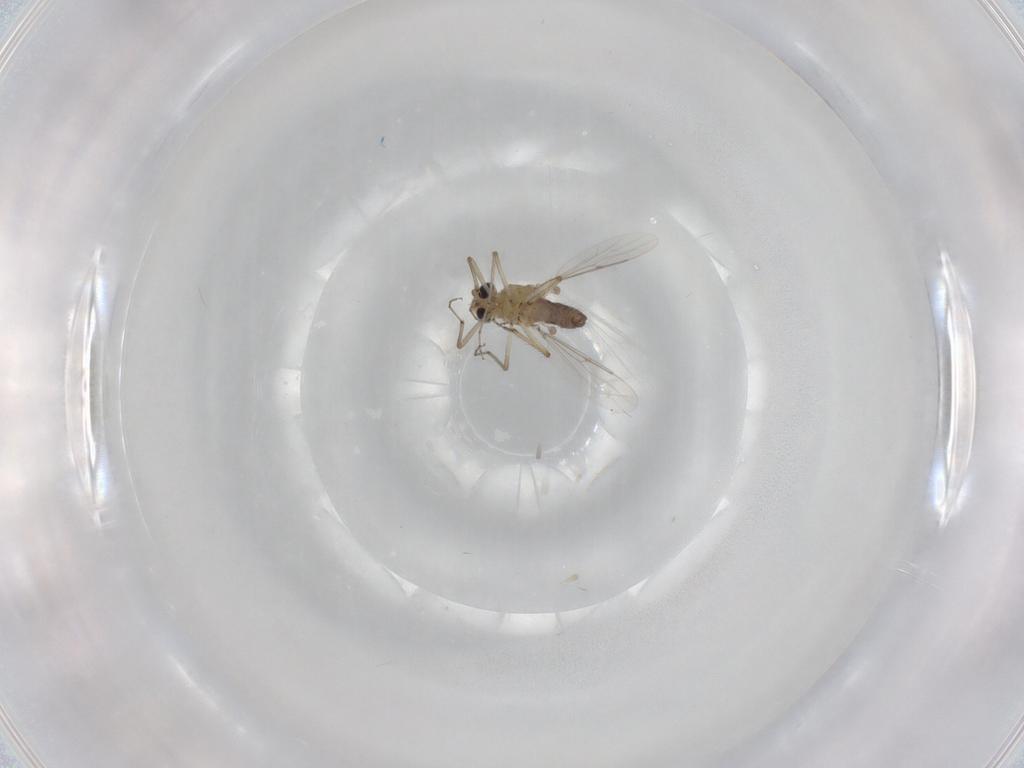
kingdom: Animalia
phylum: Arthropoda
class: Insecta
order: Diptera
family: Ceratopogonidae
